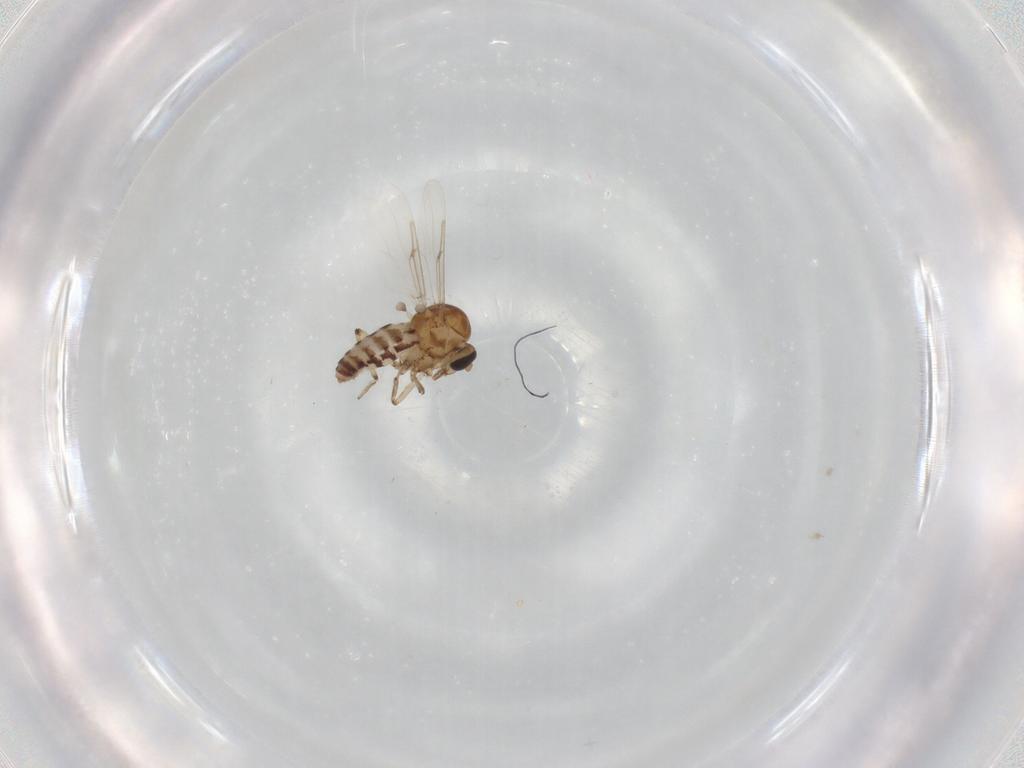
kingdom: Animalia
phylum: Arthropoda
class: Insecta
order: Diptera
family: Ceratopogonidae
